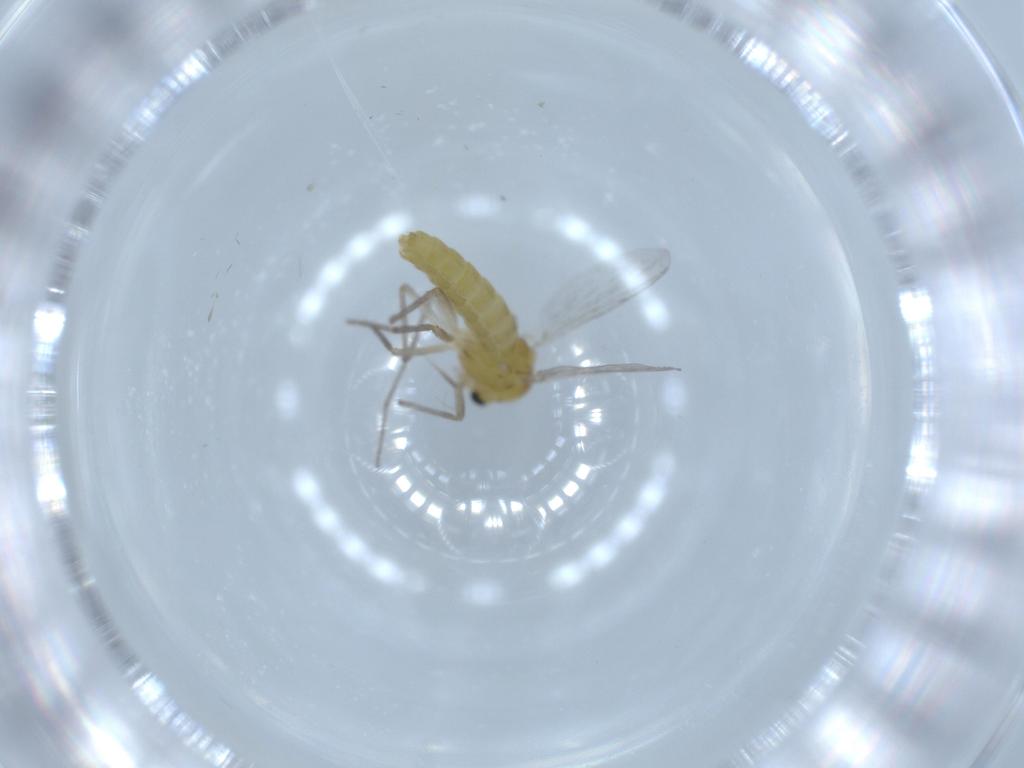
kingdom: Animalia
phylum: Arthropoda
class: Insecta
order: Diptera
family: Chironomidae
